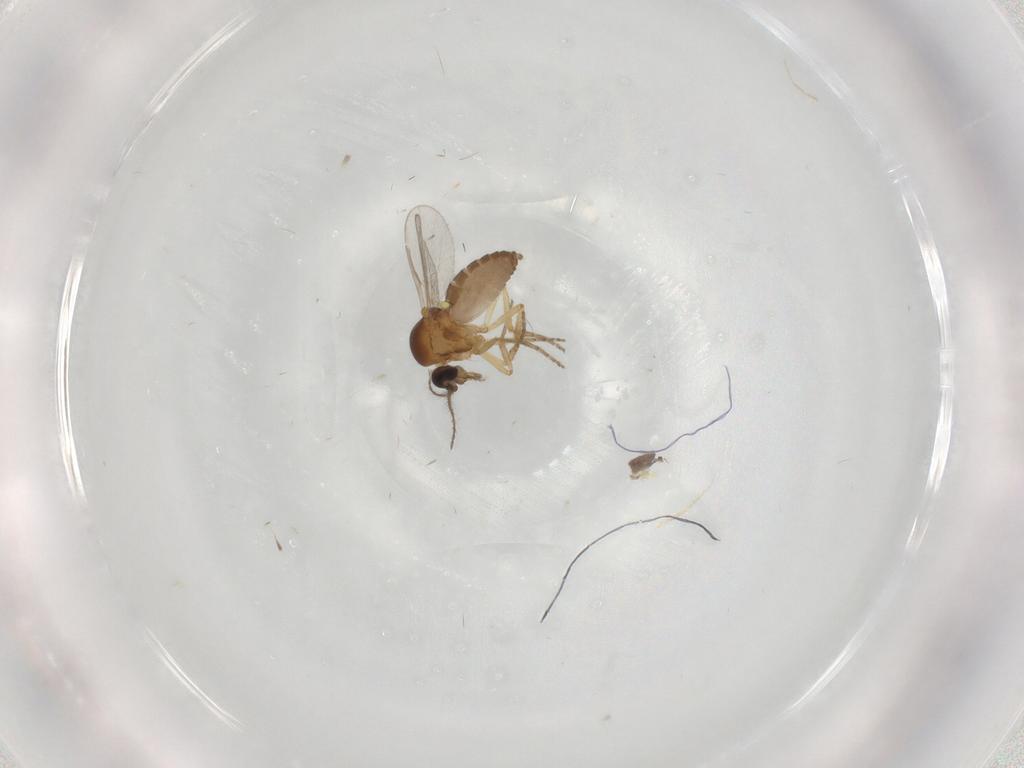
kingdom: Animalia
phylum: Arthropoda
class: Insecta
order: Diptera
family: Ceratopogonidae
